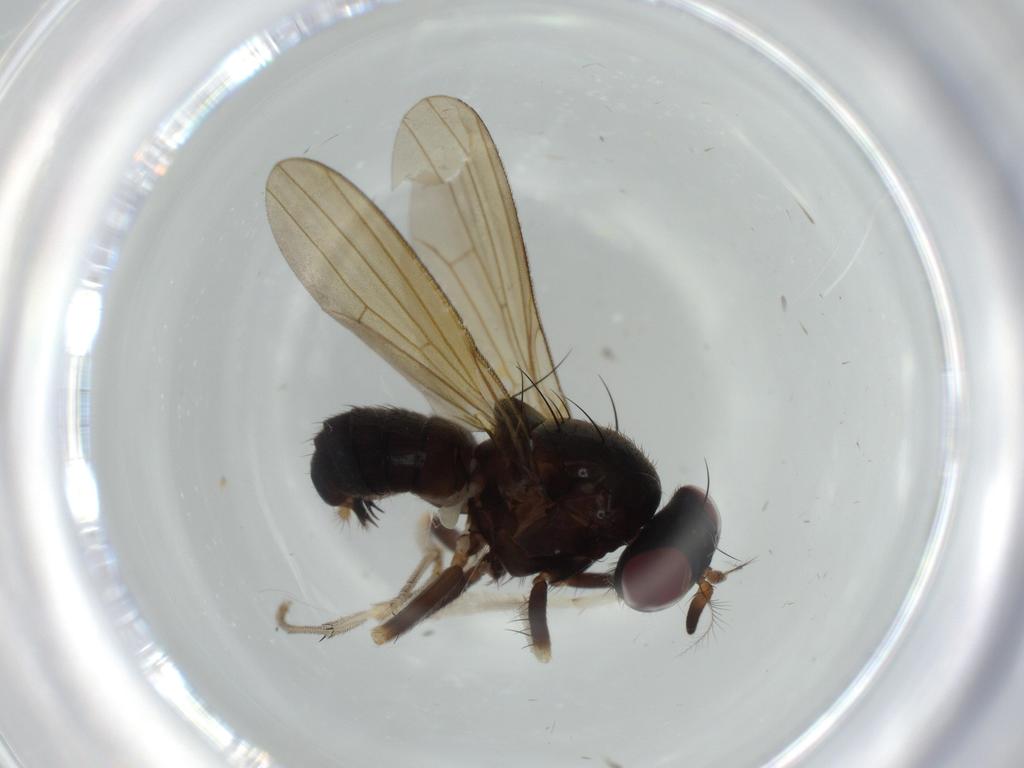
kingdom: Animalia
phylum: Arthropoda
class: Insecta
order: Diptera
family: Lauxaniidae
